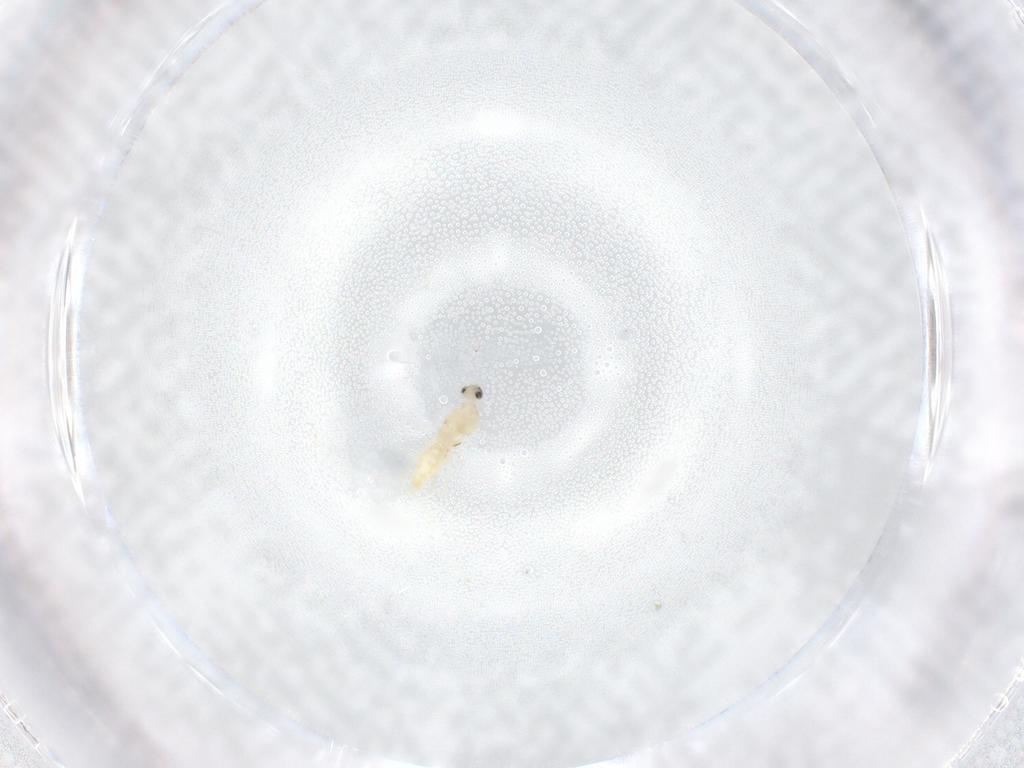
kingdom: Animalia
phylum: Arthropoda
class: Insecta
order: Diptera
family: Cecidomyiidae
